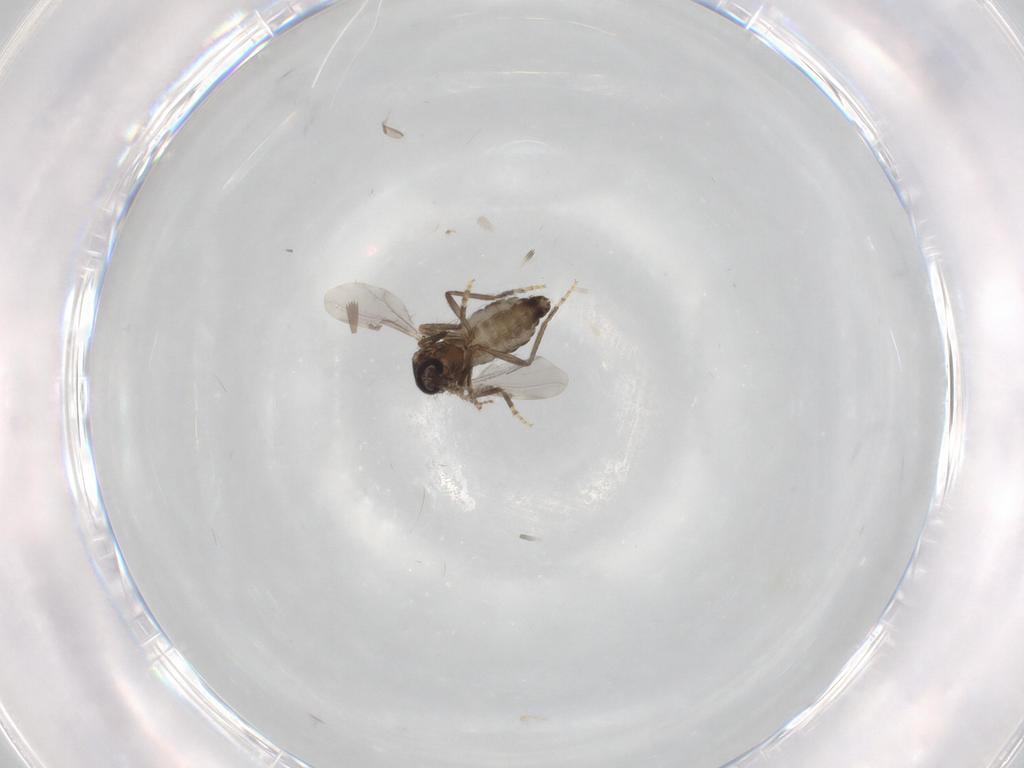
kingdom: Animalia
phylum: Arthropoda
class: Insecta
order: Diptera
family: Ceratopogonidae
